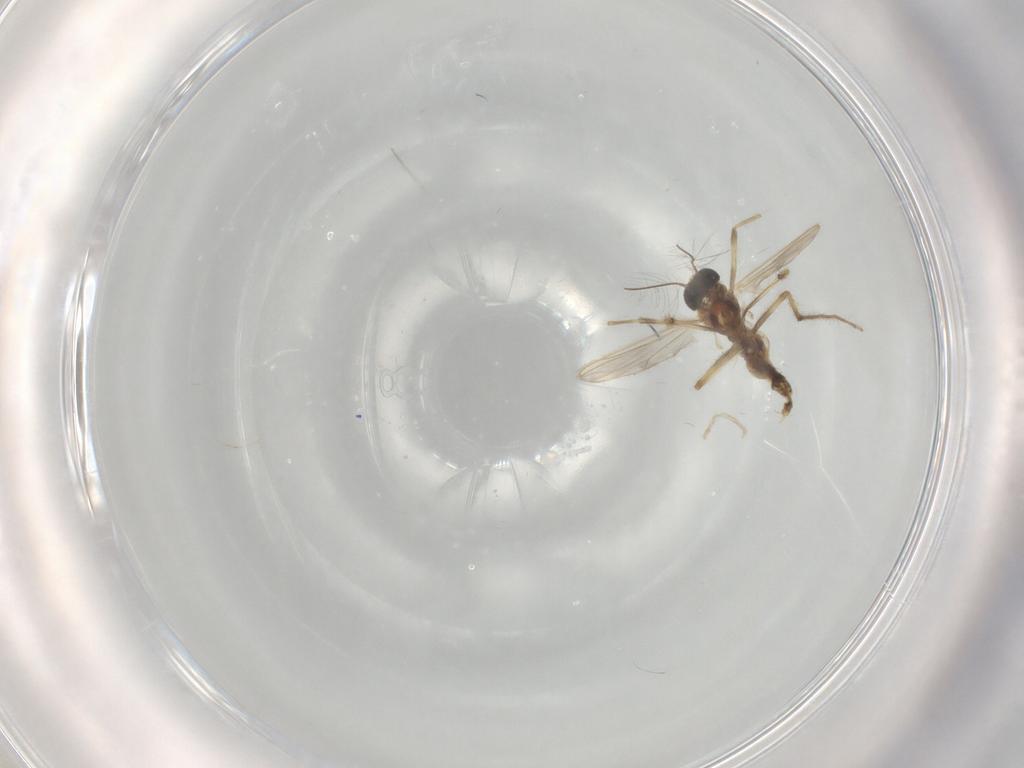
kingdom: Animalia
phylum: Arthropoda
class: Insecta
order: Diptera
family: Chironomidae
